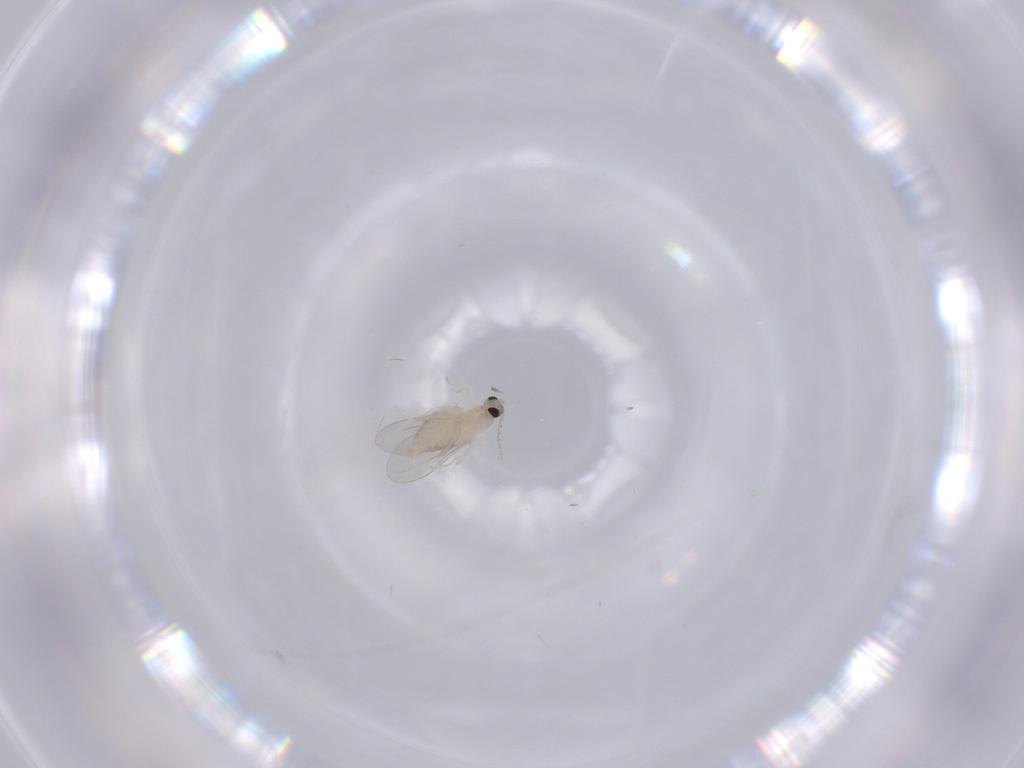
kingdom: Animalia
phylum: Arthropoda
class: Insecta
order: Diptera
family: Cecidomyiidae
